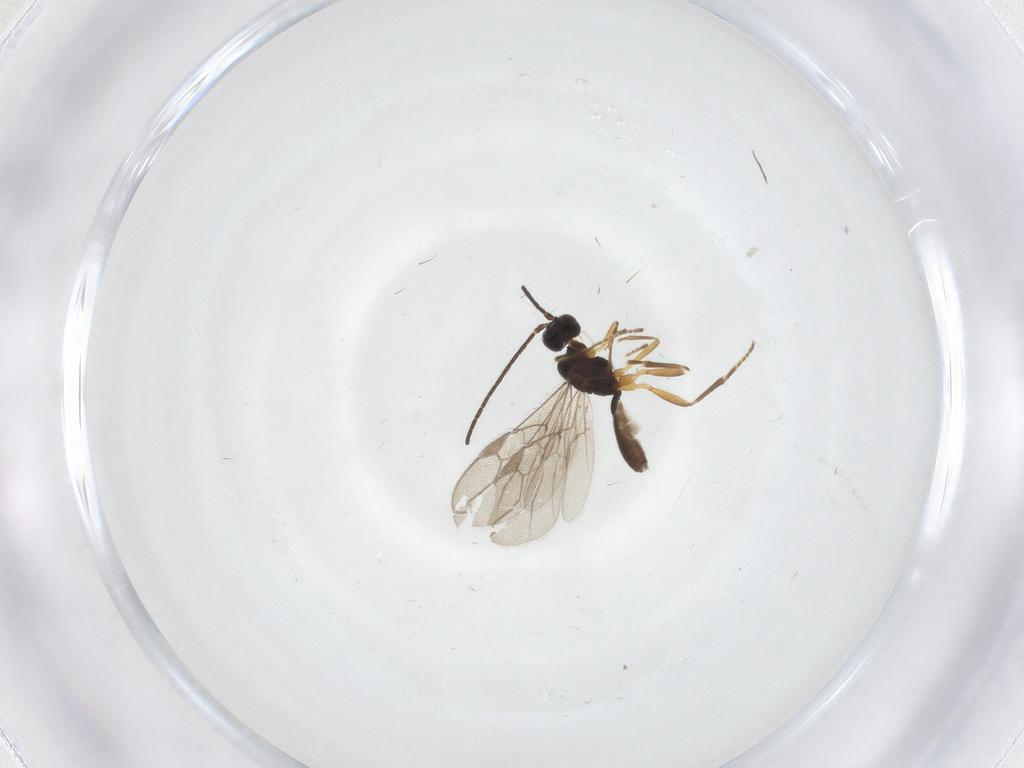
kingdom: Animalia
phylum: Arthropoda
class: Insecta
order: Hymenoptera
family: Braconidae
